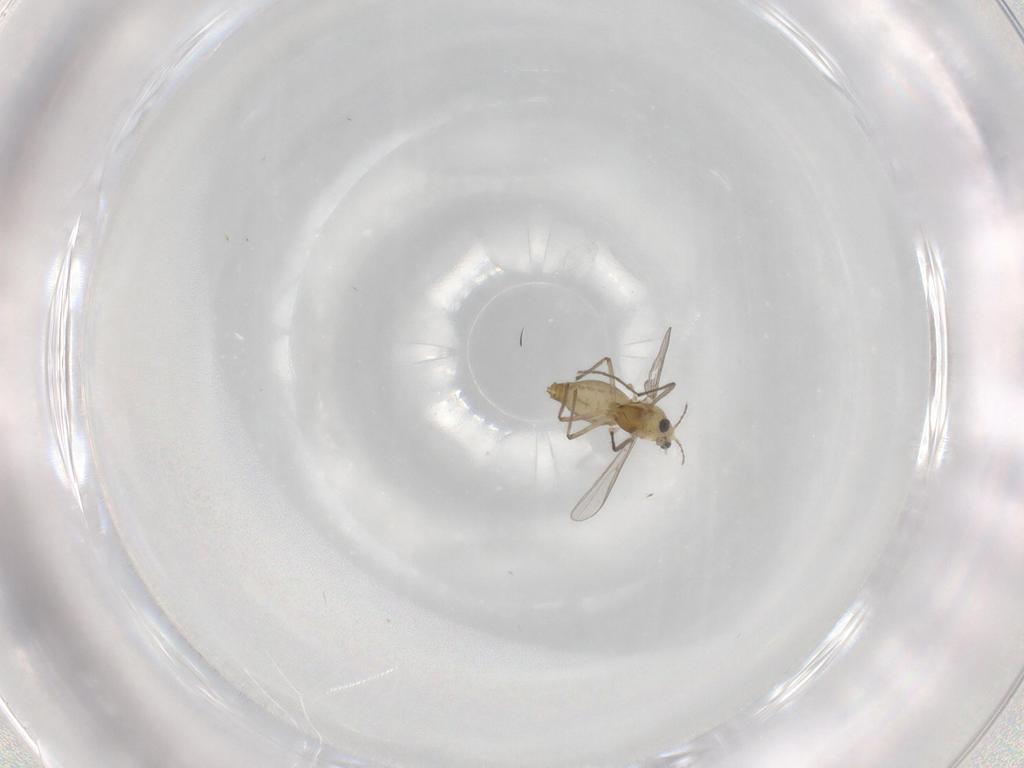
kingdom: Animalia
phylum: Arthropoda
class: Insecta
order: Diptera
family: Chironomidae
